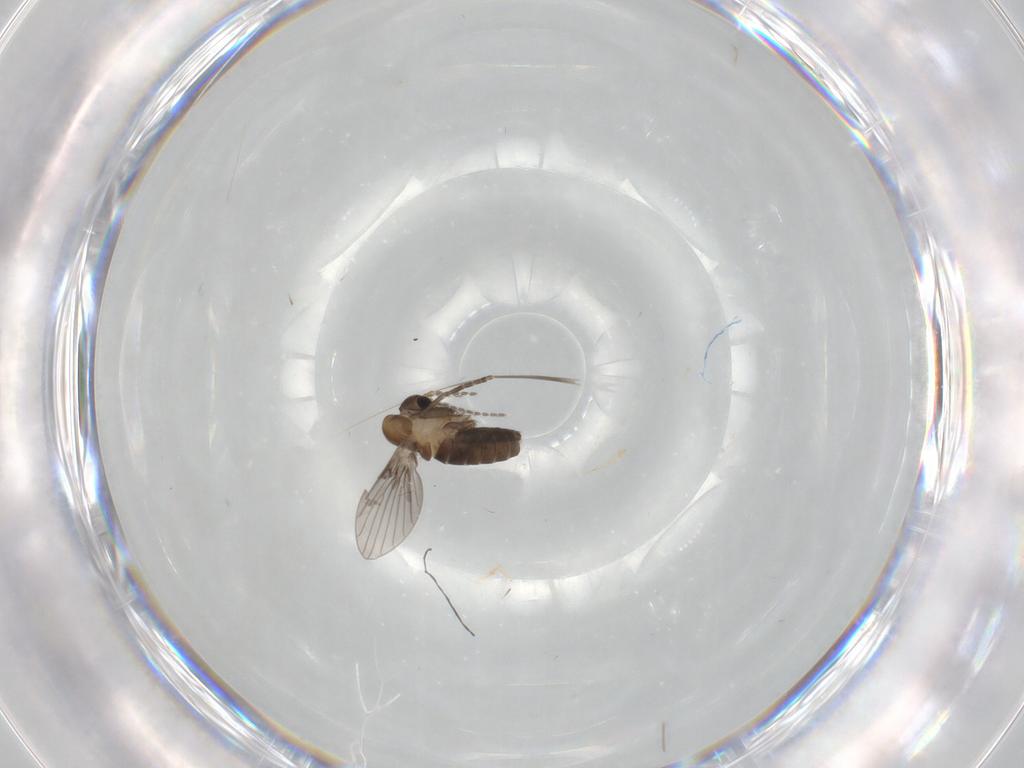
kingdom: Animalia
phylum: Arthropoda
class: Insecta
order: Diptera
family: Psychodidae
